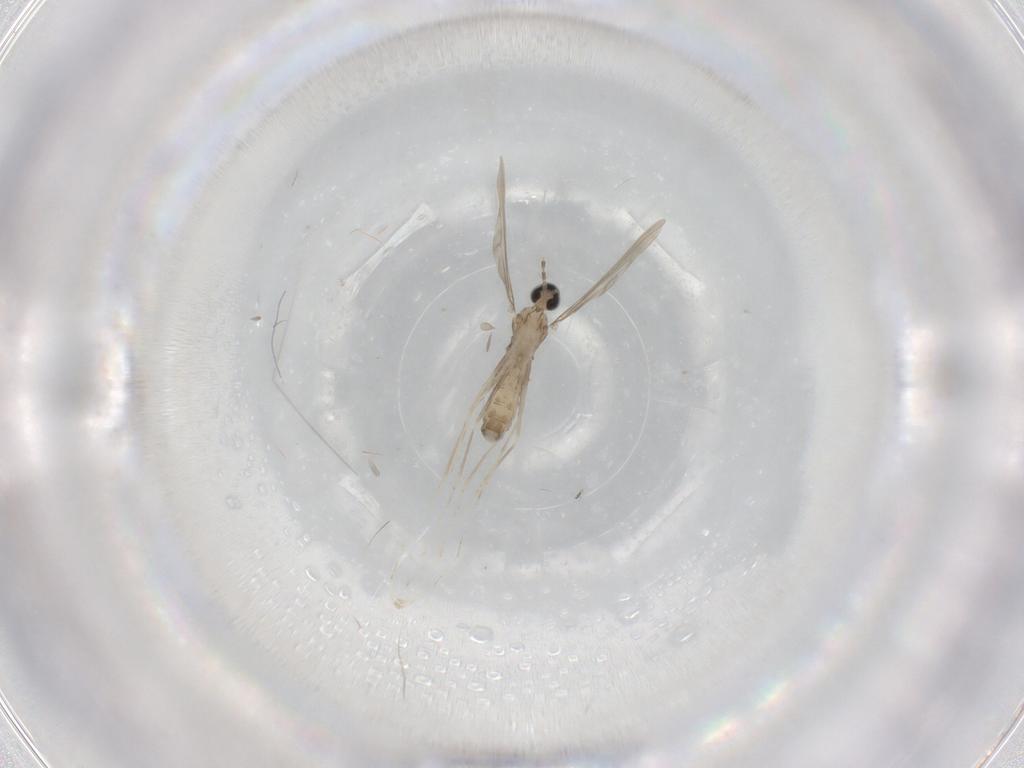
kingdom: Animalia
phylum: Arthropoda
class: Insecta
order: Diptera
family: Cecidomyiidae
